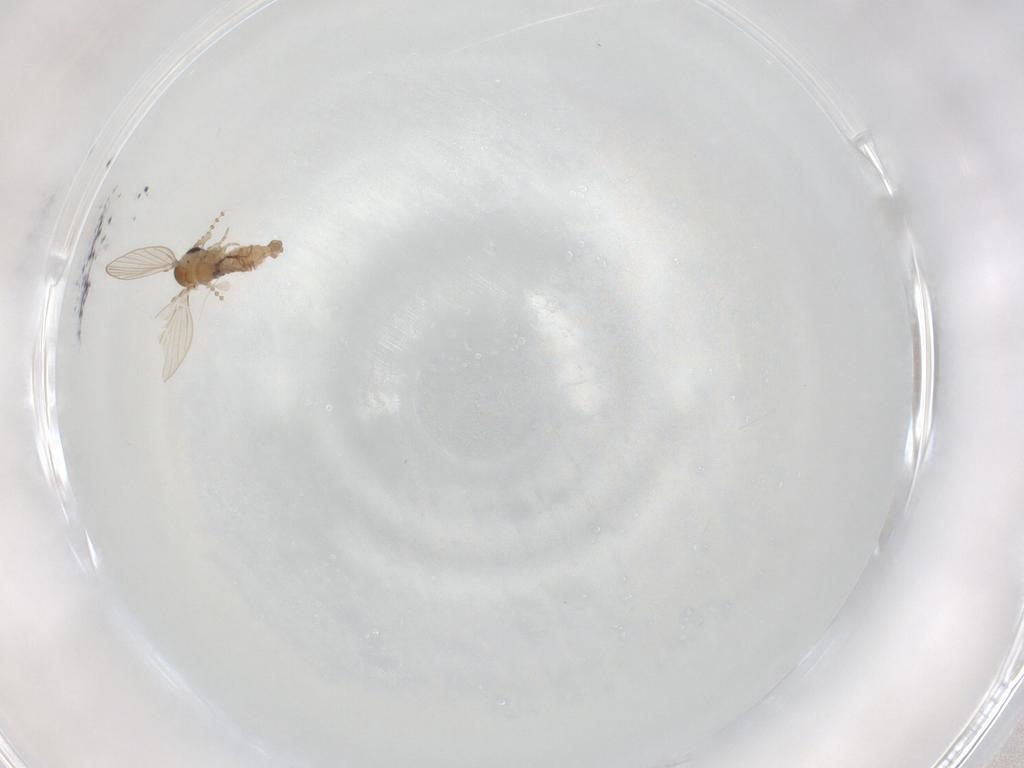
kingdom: Animalia
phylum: Arthropoda
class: Insecta
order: Diptera
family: Psychodidae
